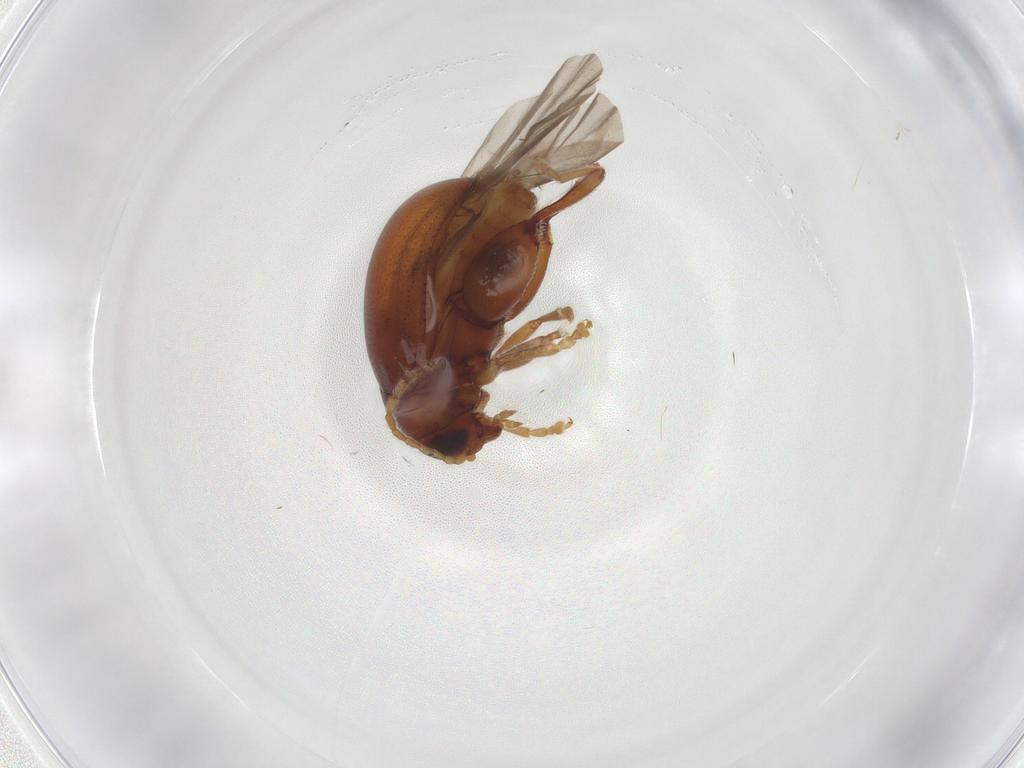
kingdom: Animalia
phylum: Arthropoda
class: Insecta
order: Coleoptera
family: Chrysomelidae
